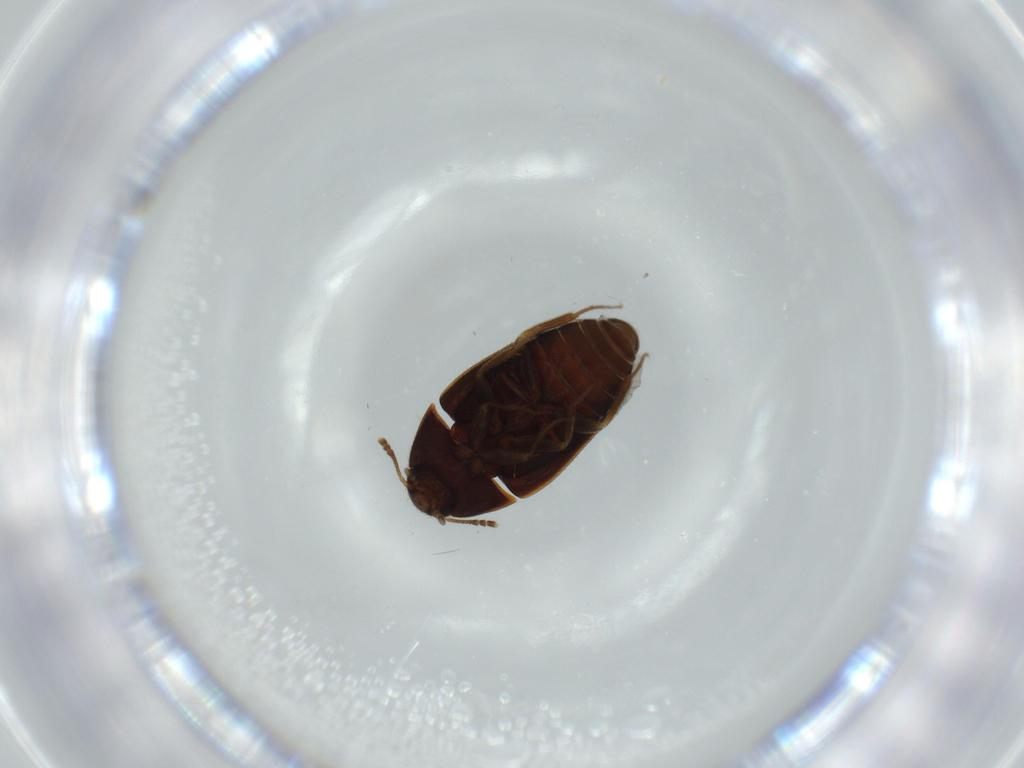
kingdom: Animalia
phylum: Arthropoda
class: Insecta
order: Coleoptera
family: Mycetophagidae
